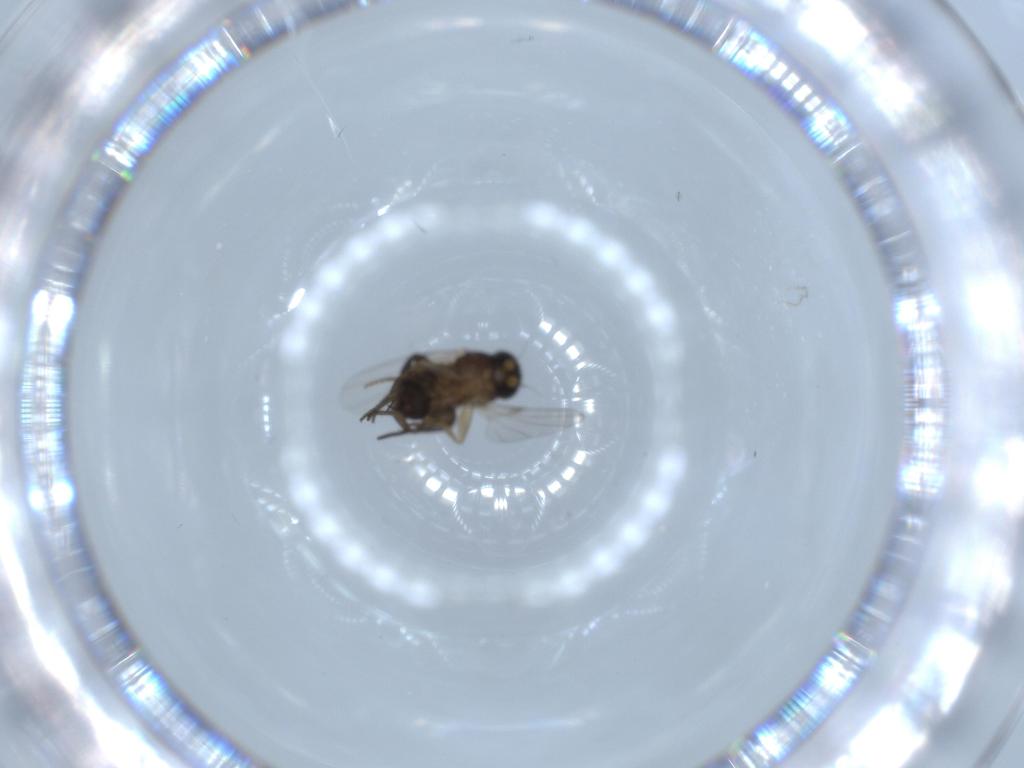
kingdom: Animalia
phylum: Arthropoda
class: Insecta
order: Diptera
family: Phoridae
